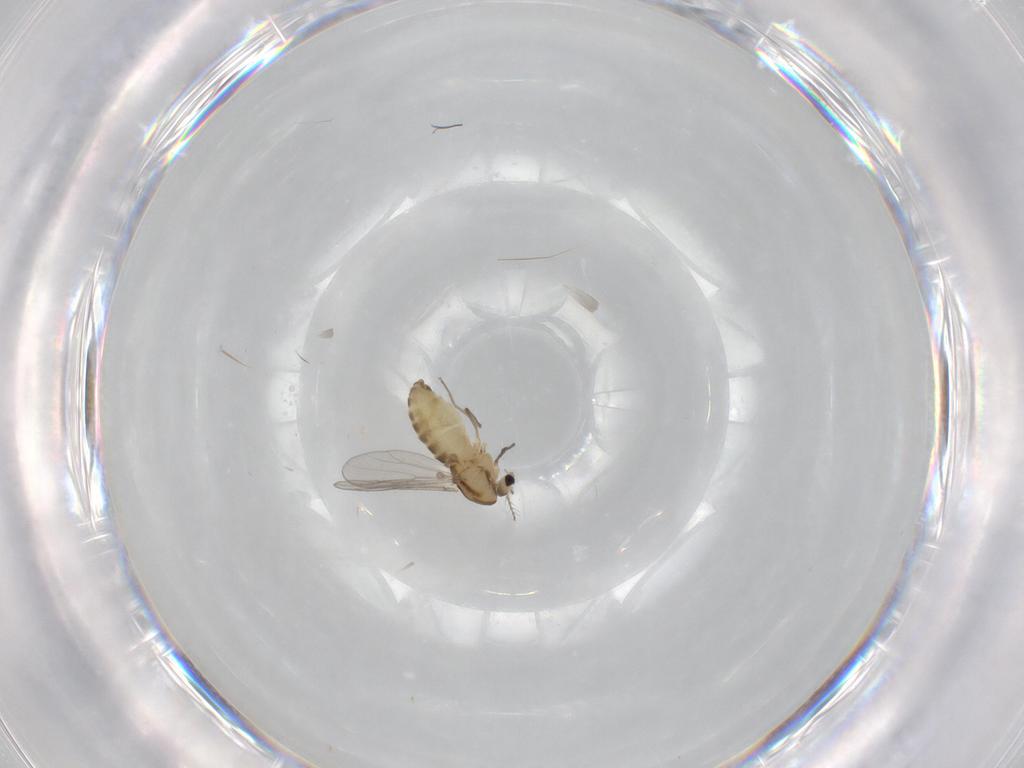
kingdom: Animalia
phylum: Arthropoda
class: Insecta
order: Diptera
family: Chironomidae
